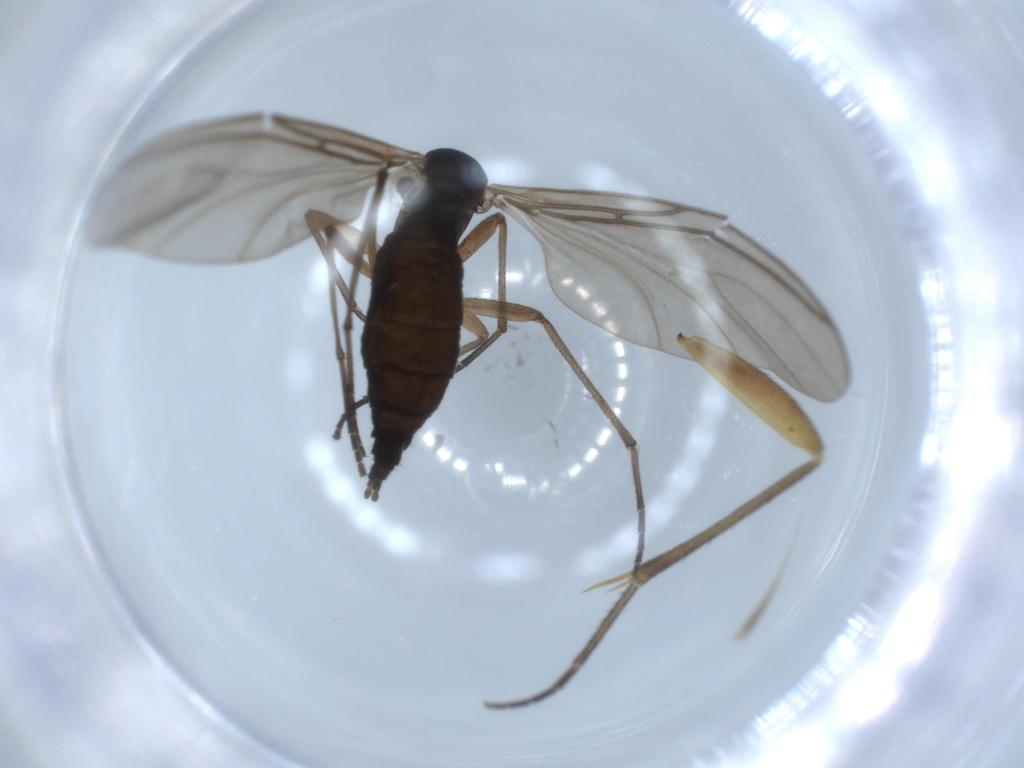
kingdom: Animalia
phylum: Arthropoda
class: Insecta
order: Diptera
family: Sciaridae
